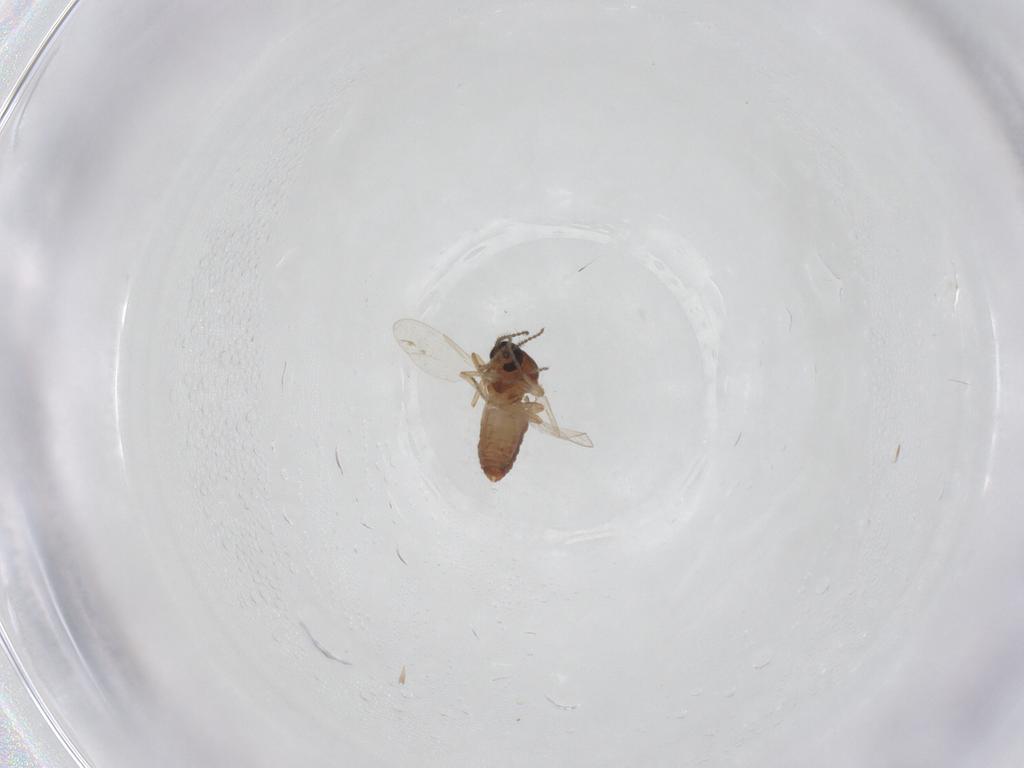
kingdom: Animalia
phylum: Arthropoda
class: Insecta
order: Diptera
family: Ceratopogonidae
